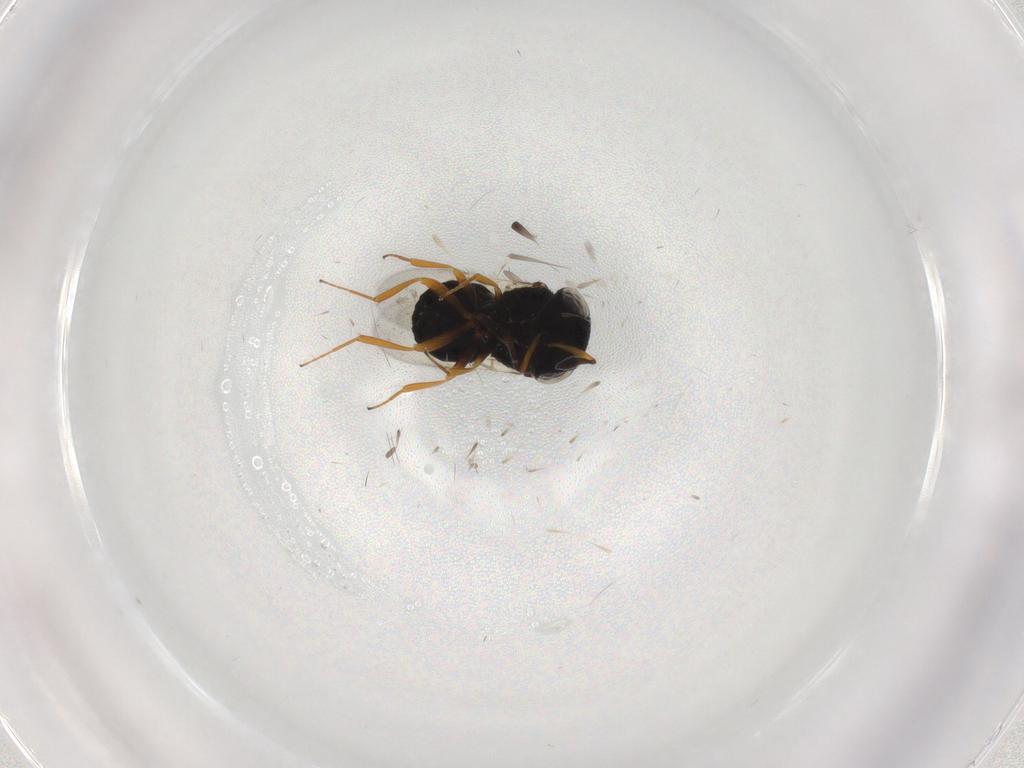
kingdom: Animalia
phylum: Arthropoda
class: Insecta
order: Hymenoptera
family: Scelionidae
